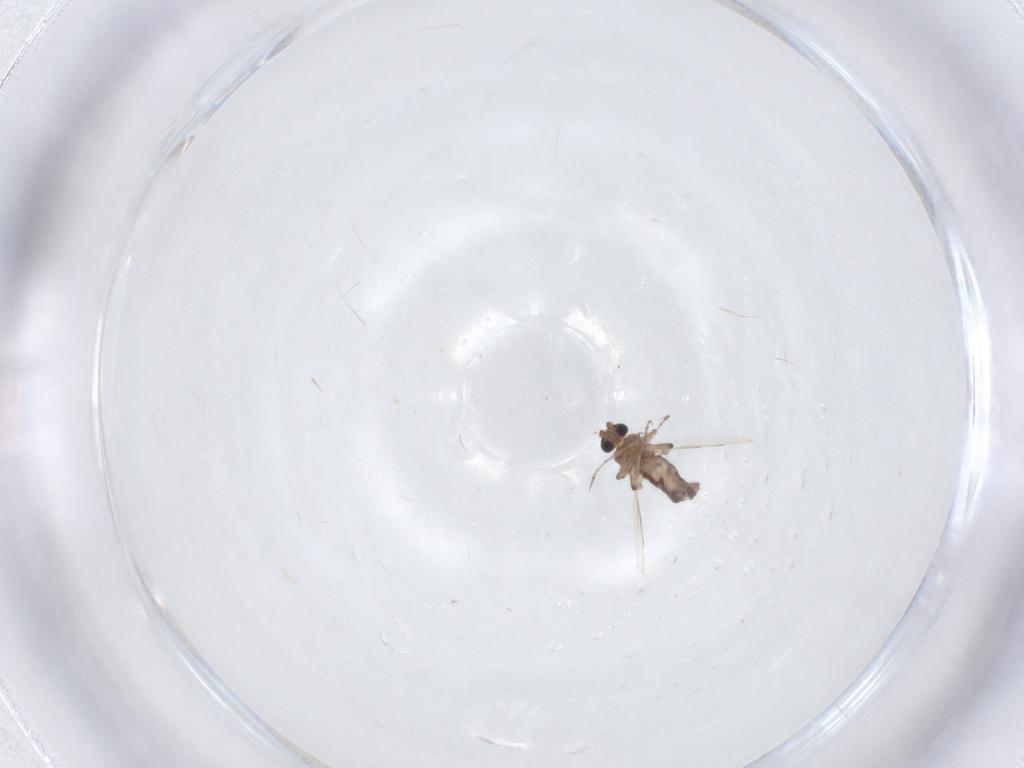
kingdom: Animalia
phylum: Arthropoda
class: Insecta
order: Diptera
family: Ceratopogonidae
